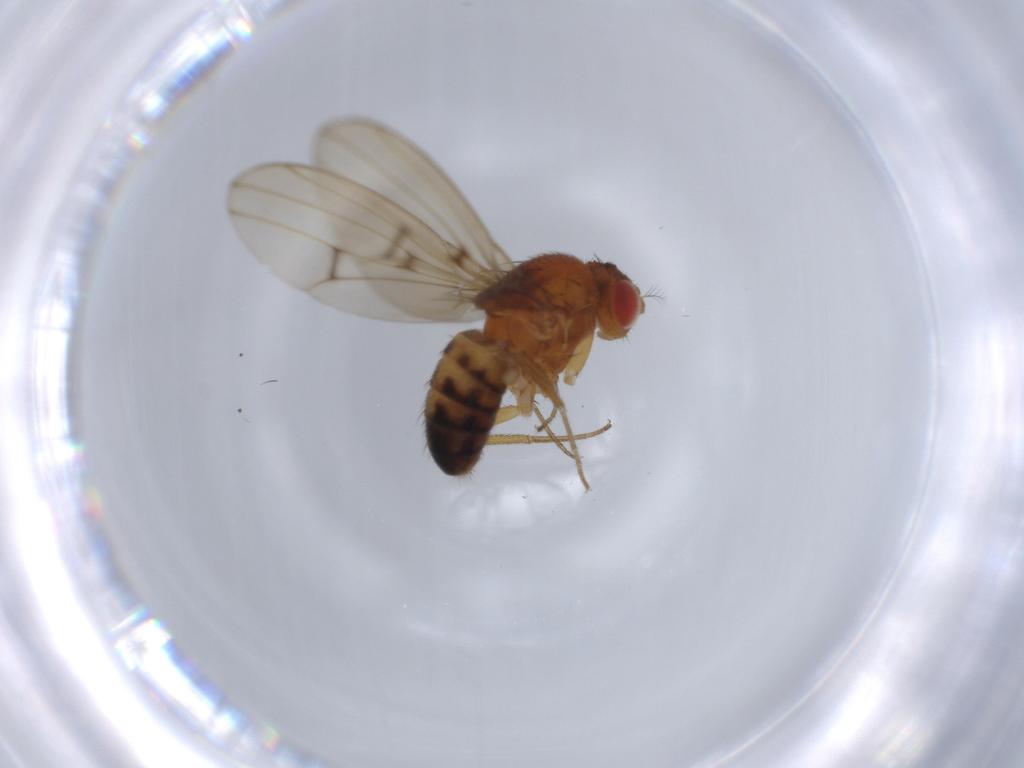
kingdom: Animalia
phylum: Arthropoda
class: Insecta
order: Diptera
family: Drosophilidae
